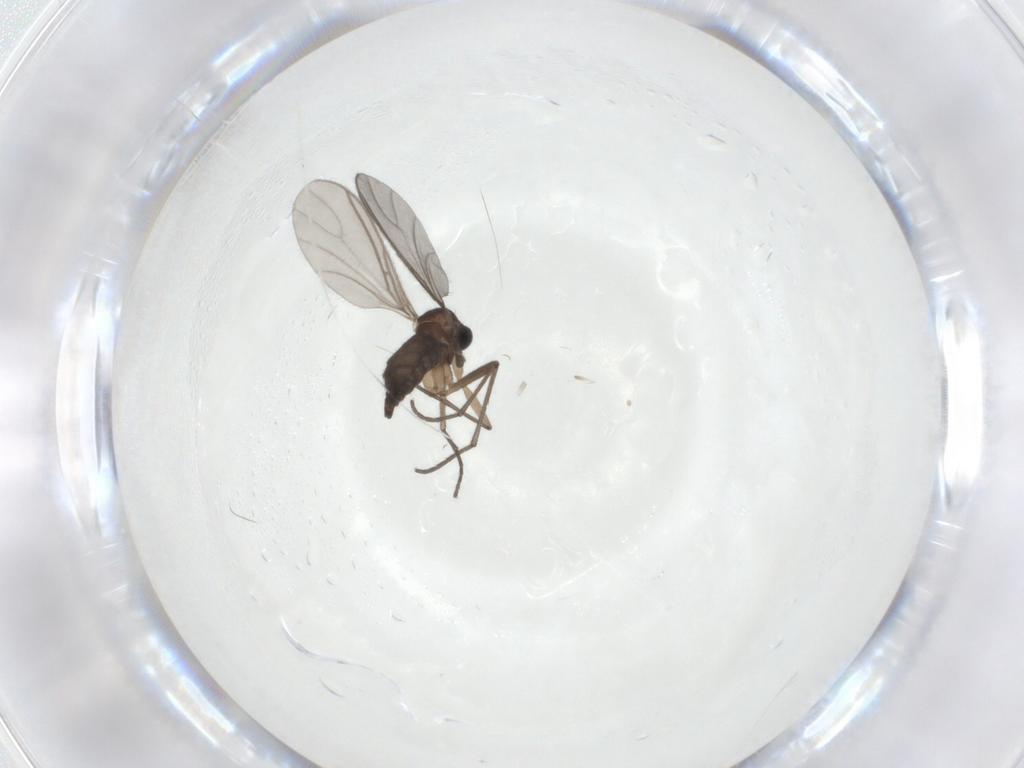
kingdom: Animalia
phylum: Arthropoda
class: Insecta
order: Diptera
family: Sciaridae
